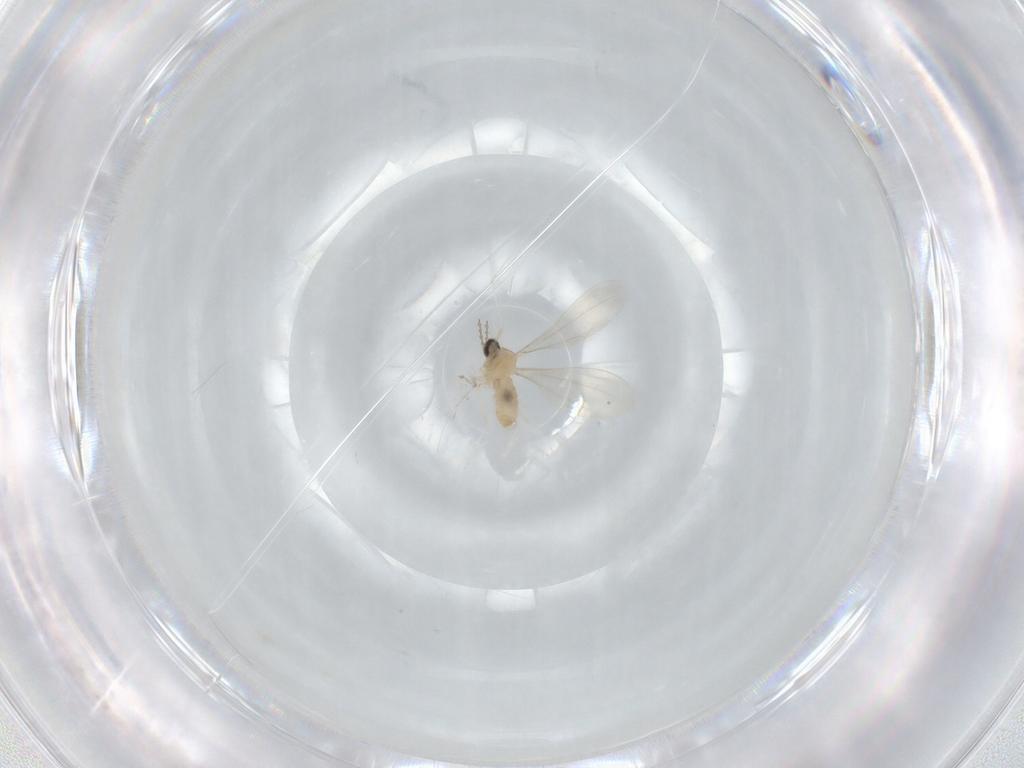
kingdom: Animalia
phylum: Arthropoda
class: Insecta
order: Diptera
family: Cecidomyiidae
